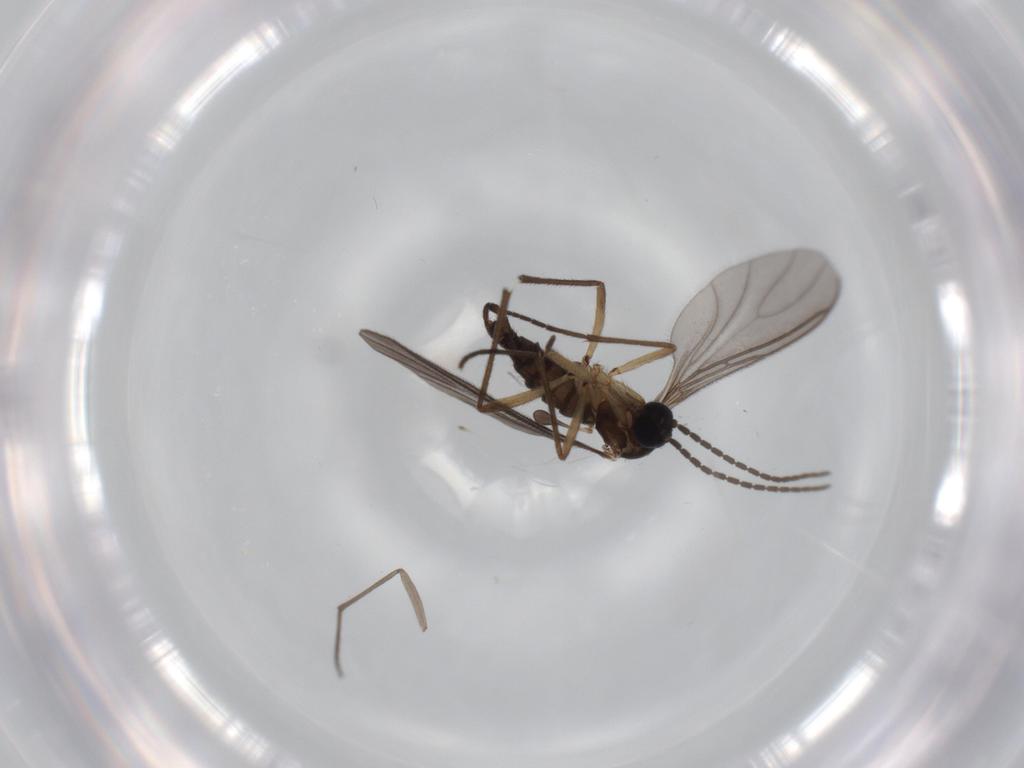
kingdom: Animalia
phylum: Arthropoda
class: Insecta
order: Diptera
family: Sciaridae
